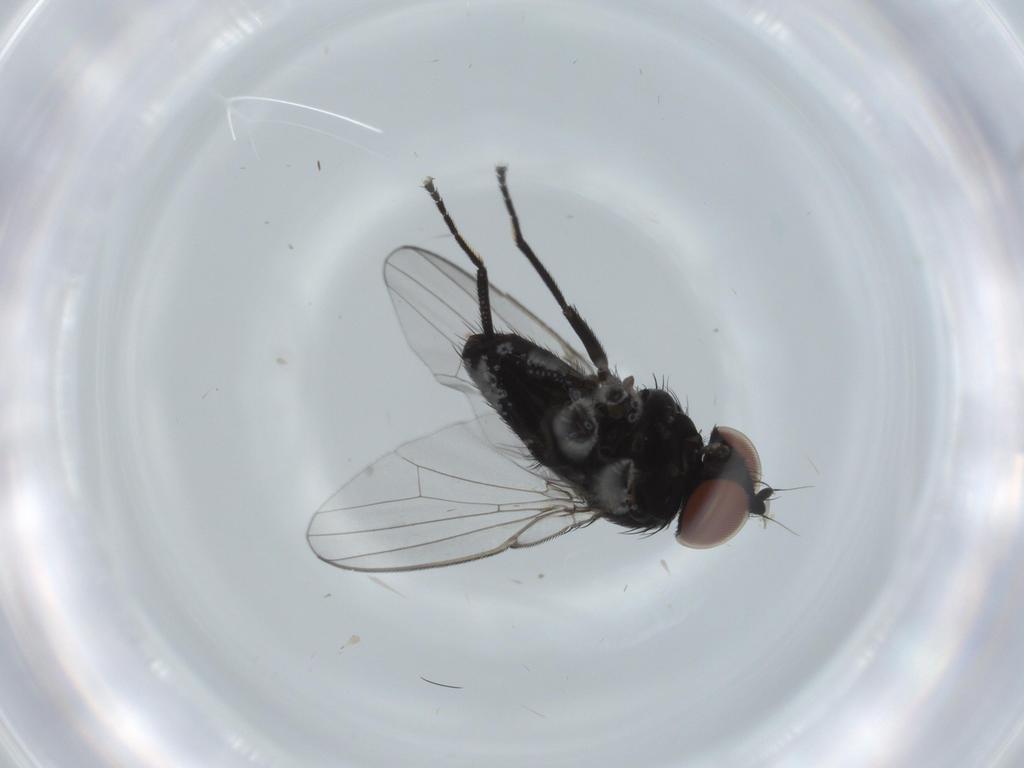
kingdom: Animalia
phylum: Arthropoda
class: Insecta
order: Diptera
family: Milichiidae
